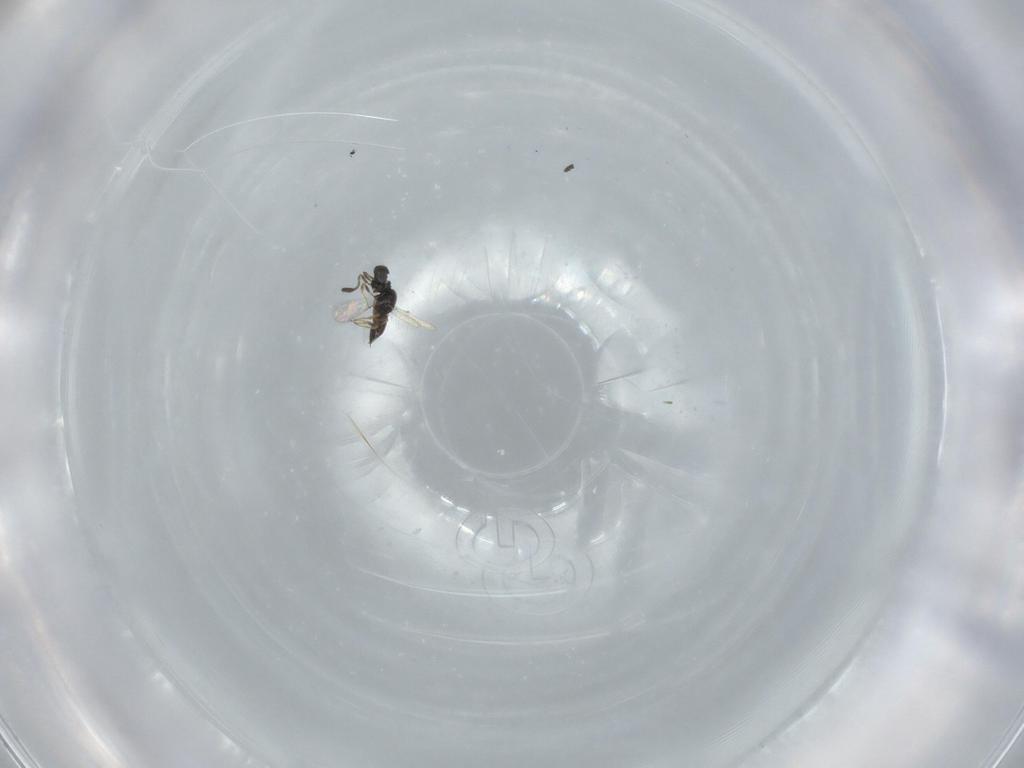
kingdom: Animalia
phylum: Arthropoda
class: Insecta
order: Hymenoptera
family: Scelionidae
